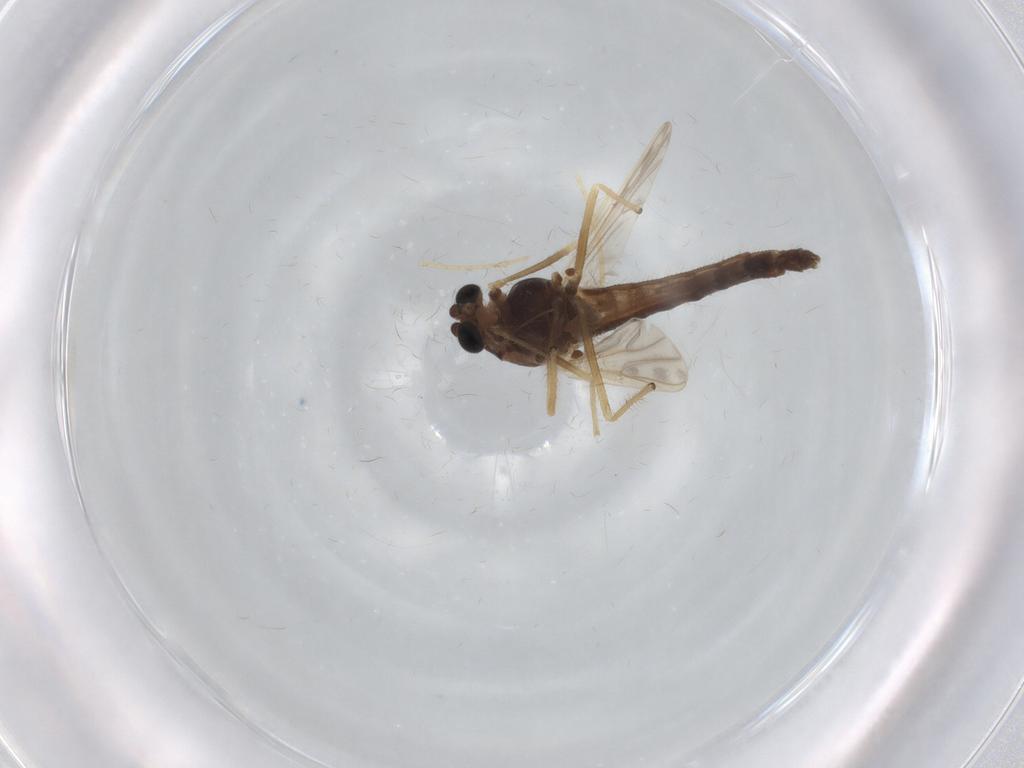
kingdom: Animalia
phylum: Arthropoda
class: Insecta
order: Diptera
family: Chironomidae
